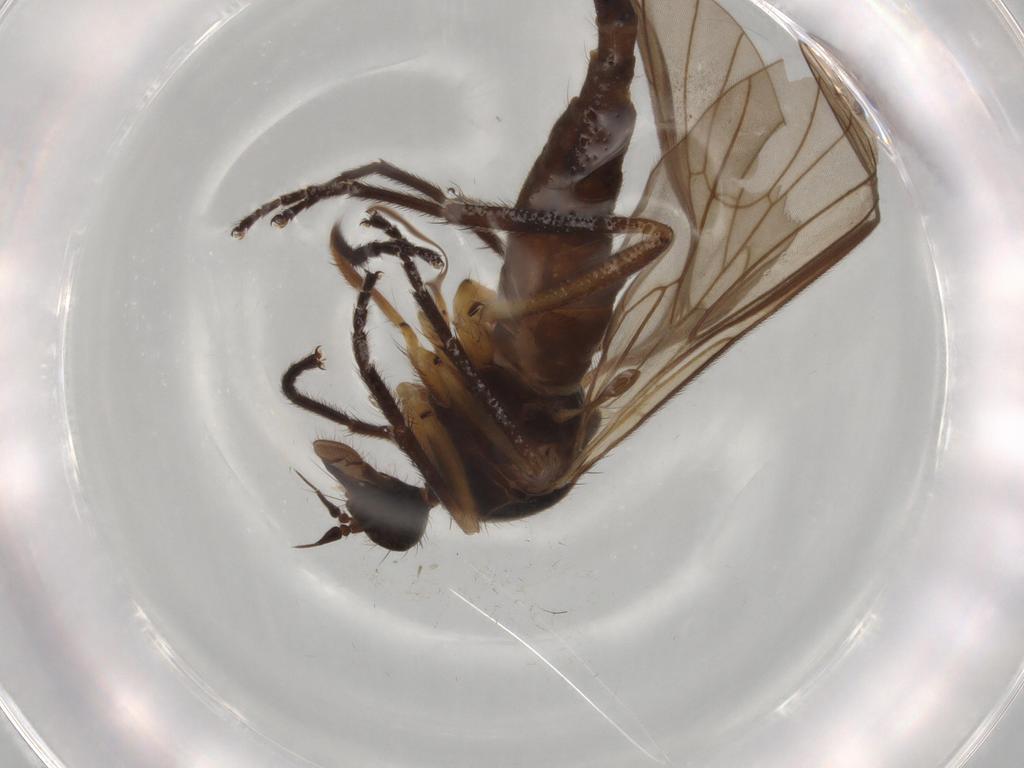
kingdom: Animalia
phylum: Arthropoda
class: Insecta
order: Diptera
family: Empididae
